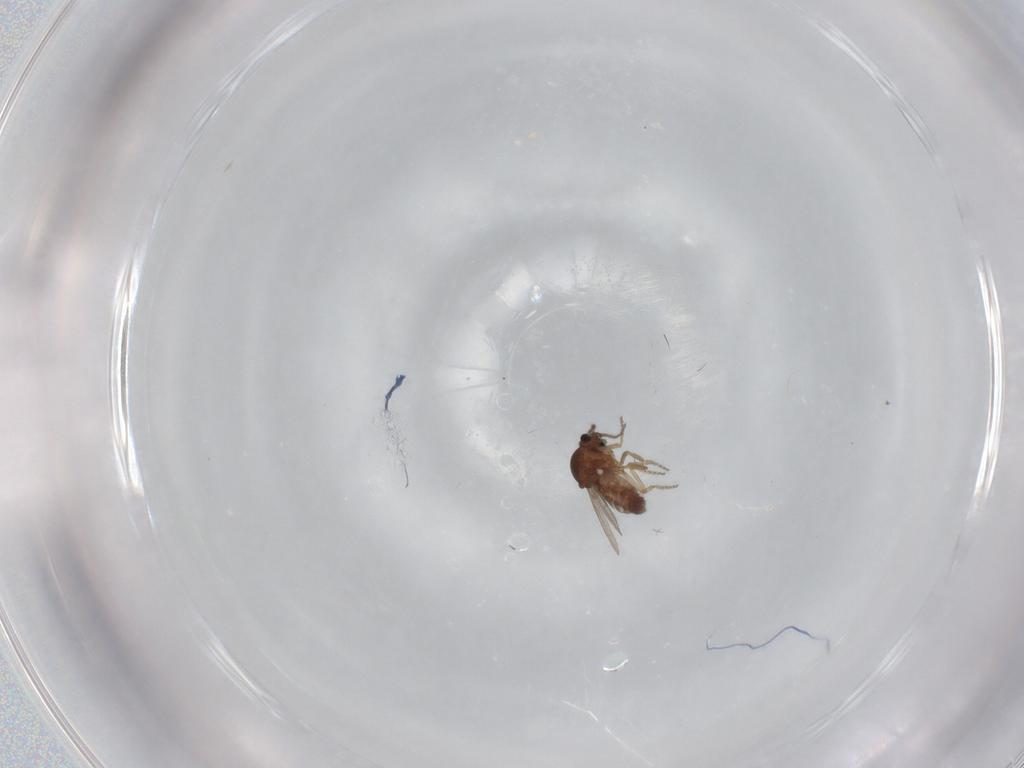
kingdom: Animalia
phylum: Arthropoda
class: Insecta
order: Diptera
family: Ceratopogonidae
